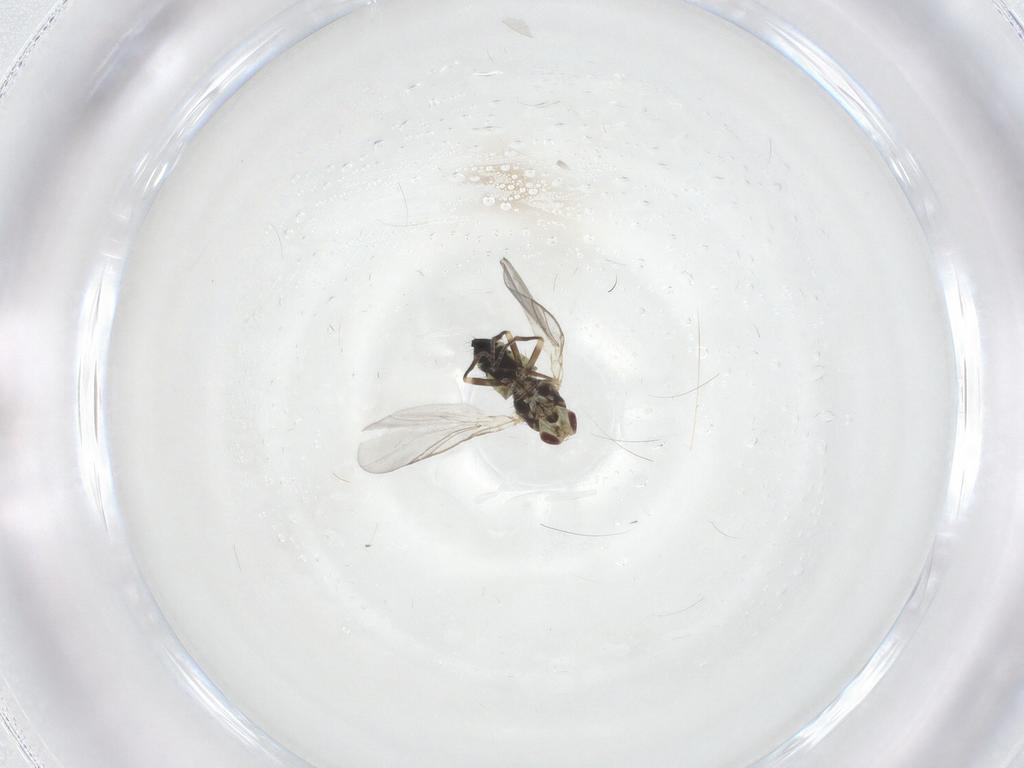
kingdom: Animalia
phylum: Arthropoda
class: Insecta
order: Diptera
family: Agromyzidae
